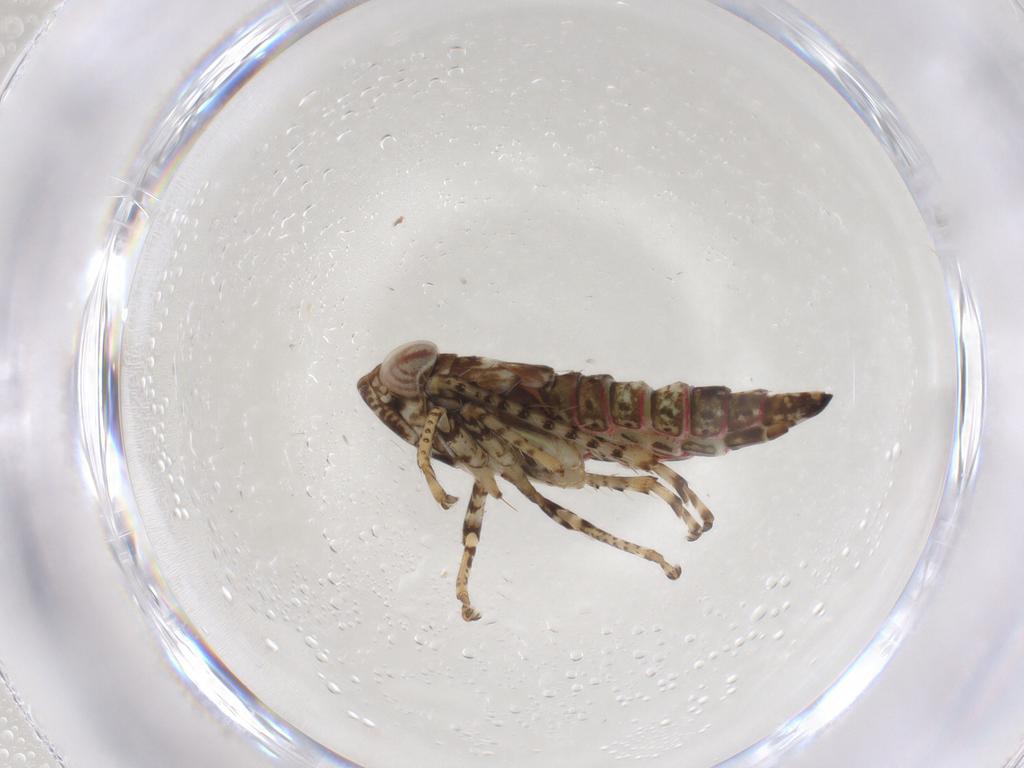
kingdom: Animalia
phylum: Arthropoda
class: Insecta
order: Hemiptera
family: Cicadellidae
